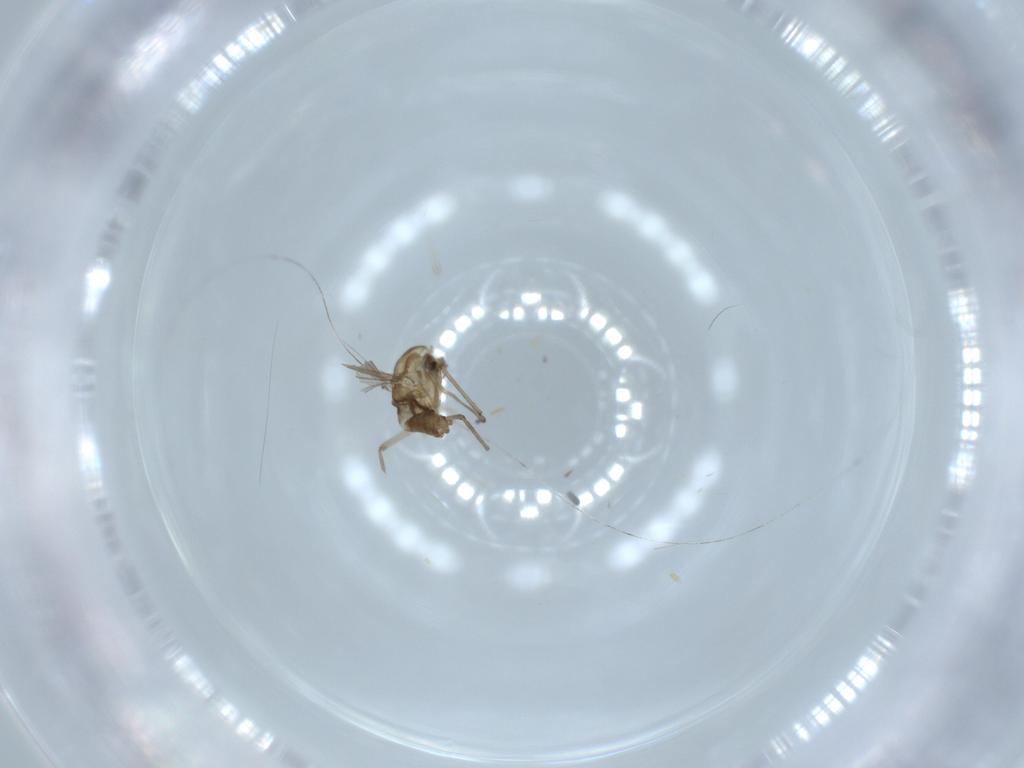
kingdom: Animalia
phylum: Arthropoda
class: Insecta
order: Diptera
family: Chironomidae
